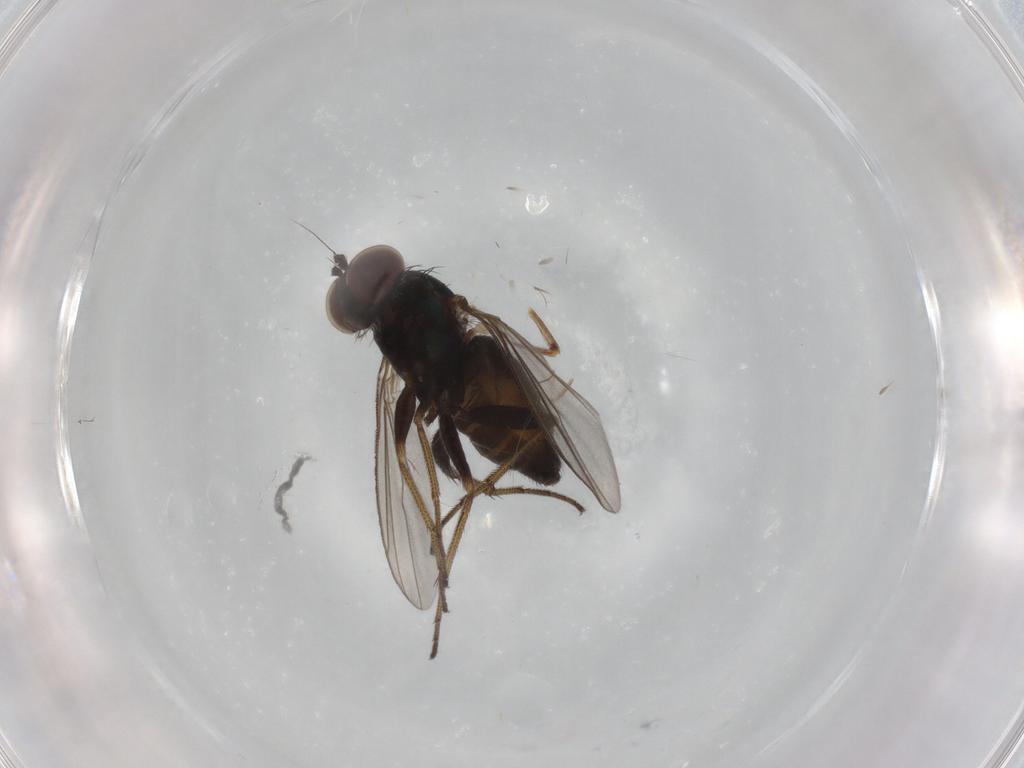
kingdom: Animalia
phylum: Arthropoda
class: Insecta
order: Diptera
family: Dolichopodidae
